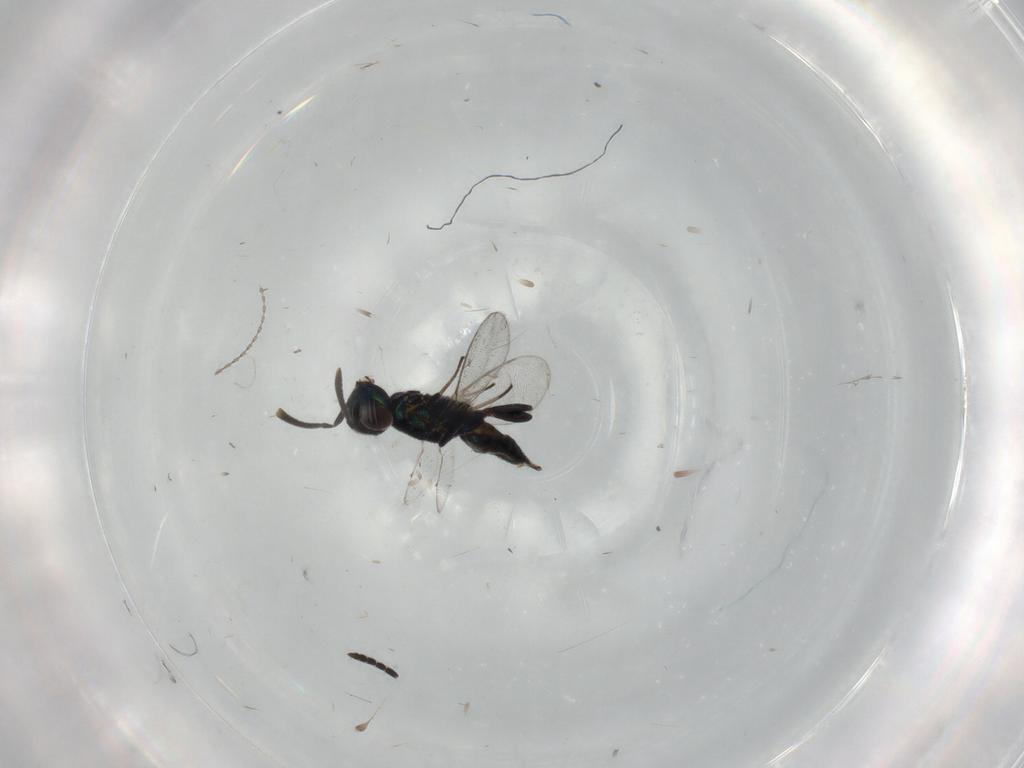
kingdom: Animalia
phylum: Arthropoda
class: Insecta
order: Hymenoptera
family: Eupelmidae
